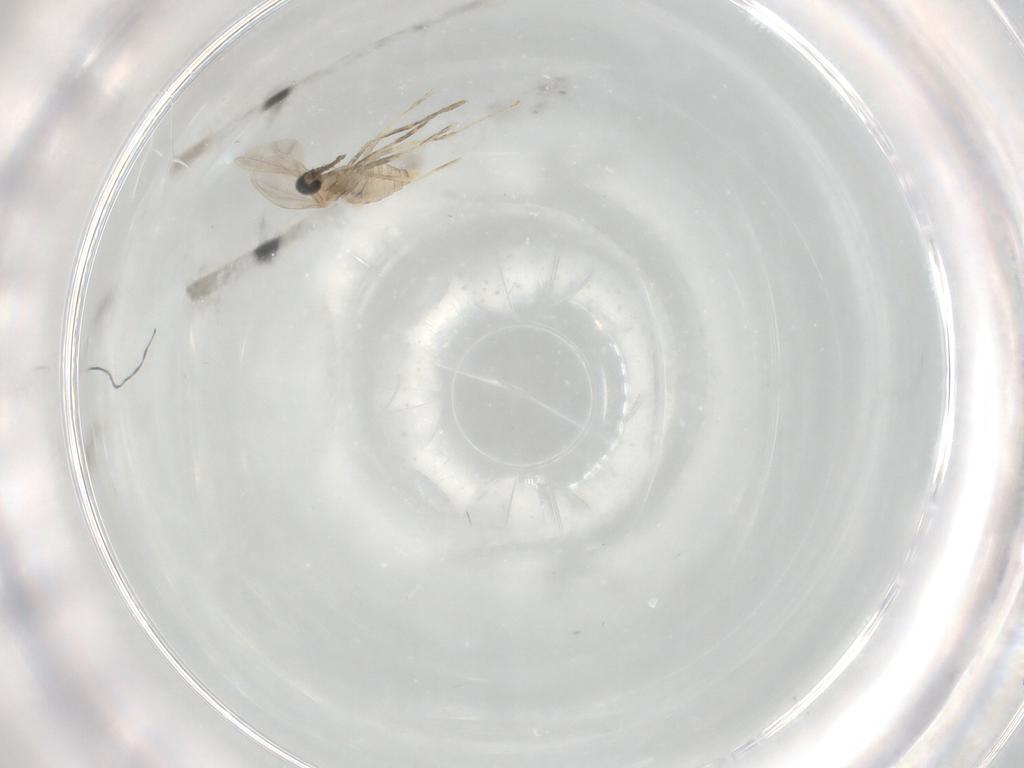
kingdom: Animalia
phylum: Arthropoda
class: Insecta
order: Diptera
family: Cecidomyiidae
